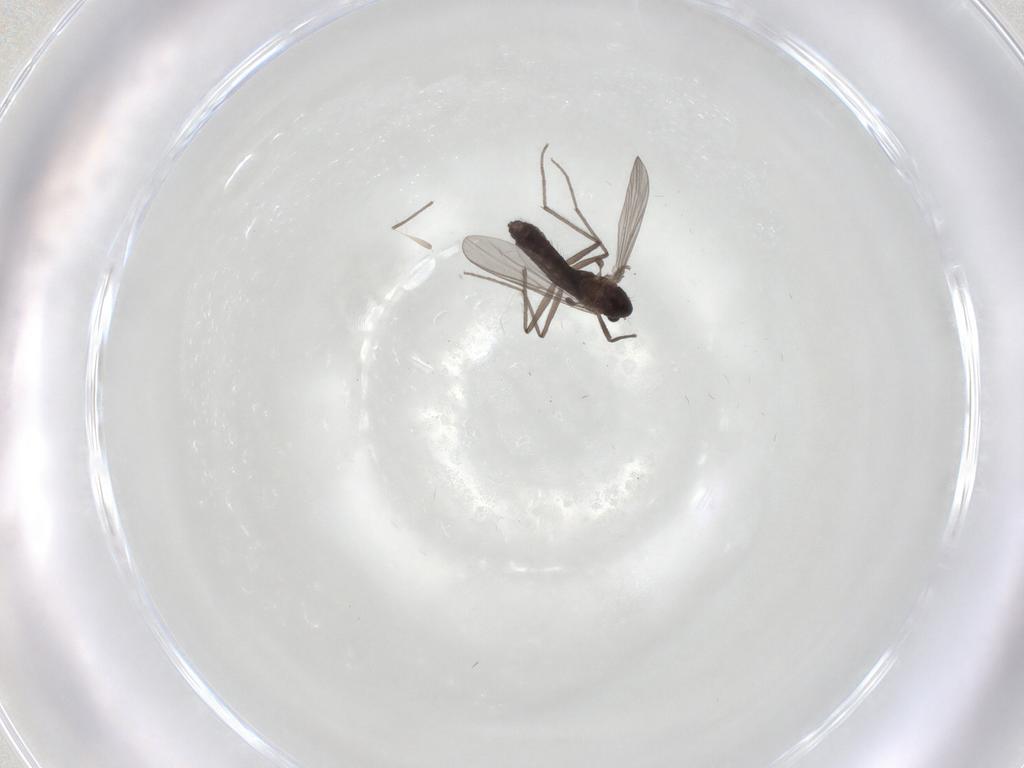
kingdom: Animalia
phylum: Arthropoda
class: Insecta
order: Diptera
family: Chironomidae
